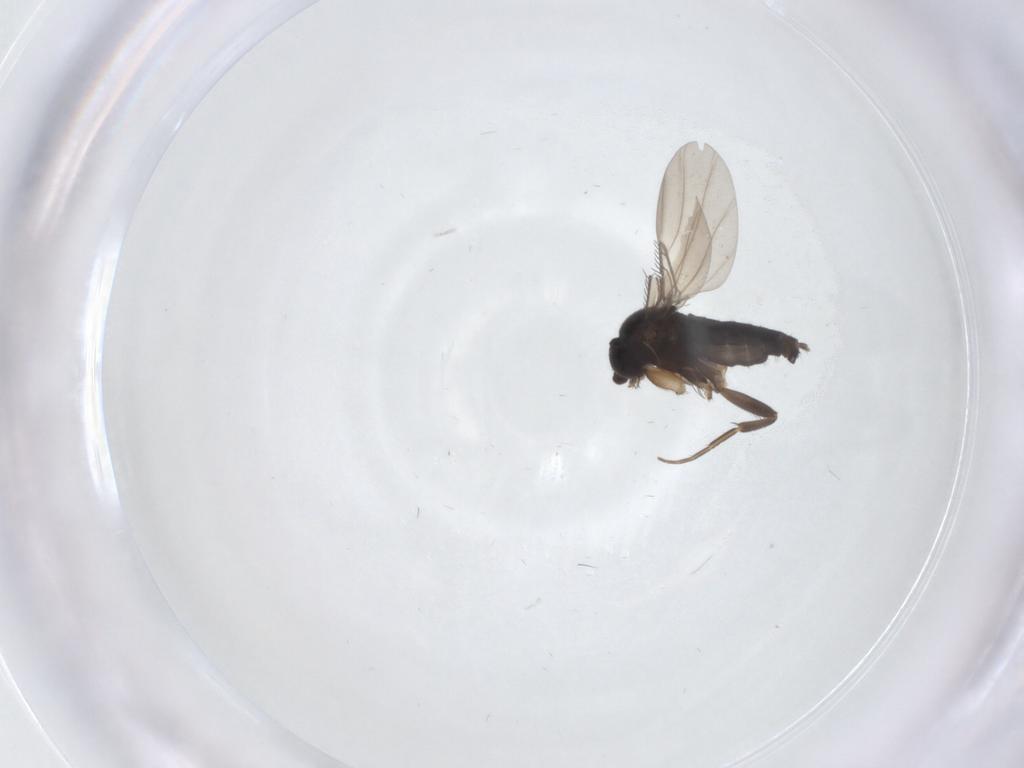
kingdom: Animalia
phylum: Arthropoda
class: Insecta
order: Diptera
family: Phoridae
